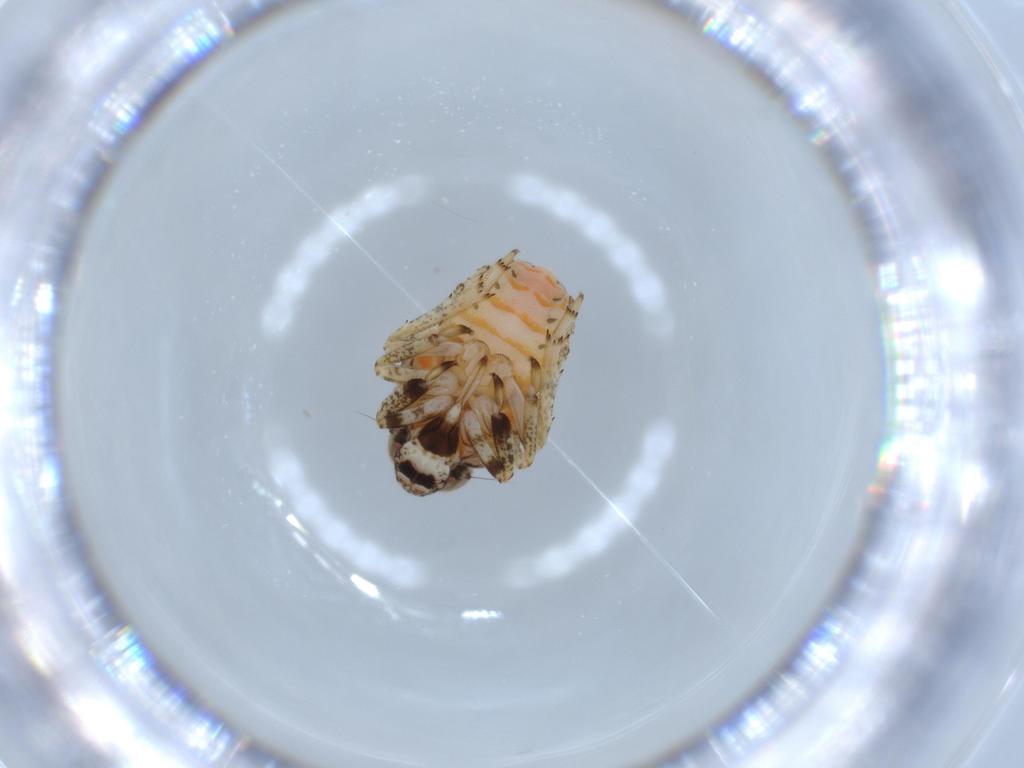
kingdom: Animalia
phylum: Arthropoda
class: Insecta
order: Hemiptera
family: Issidae
